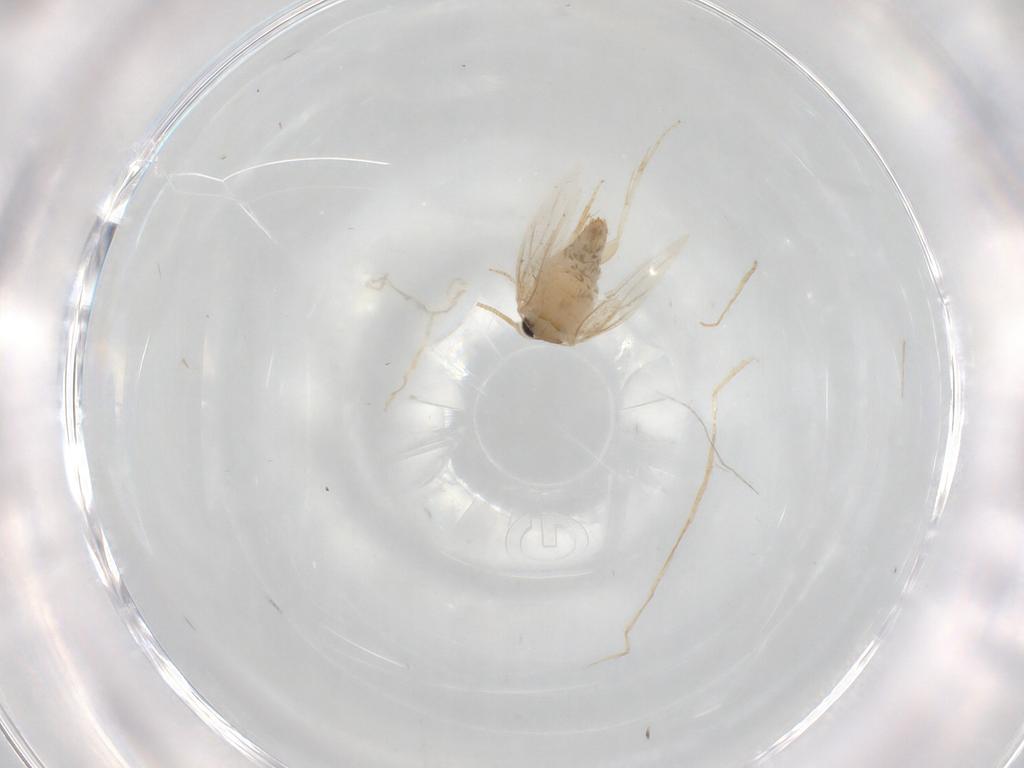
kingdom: Animalia
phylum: Arthropoda
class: Insecta
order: Lepidoptera
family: Nepticulidae
